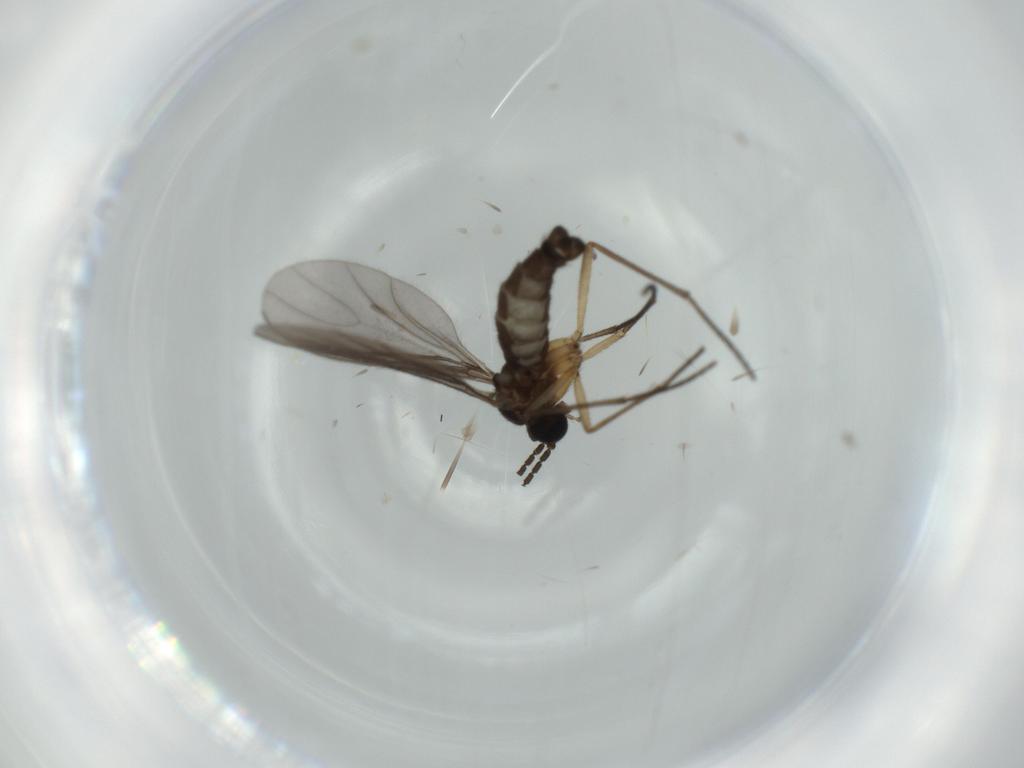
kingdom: Animalia
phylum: Arthropoda
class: Insecta
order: Diptera
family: Sciaridae
